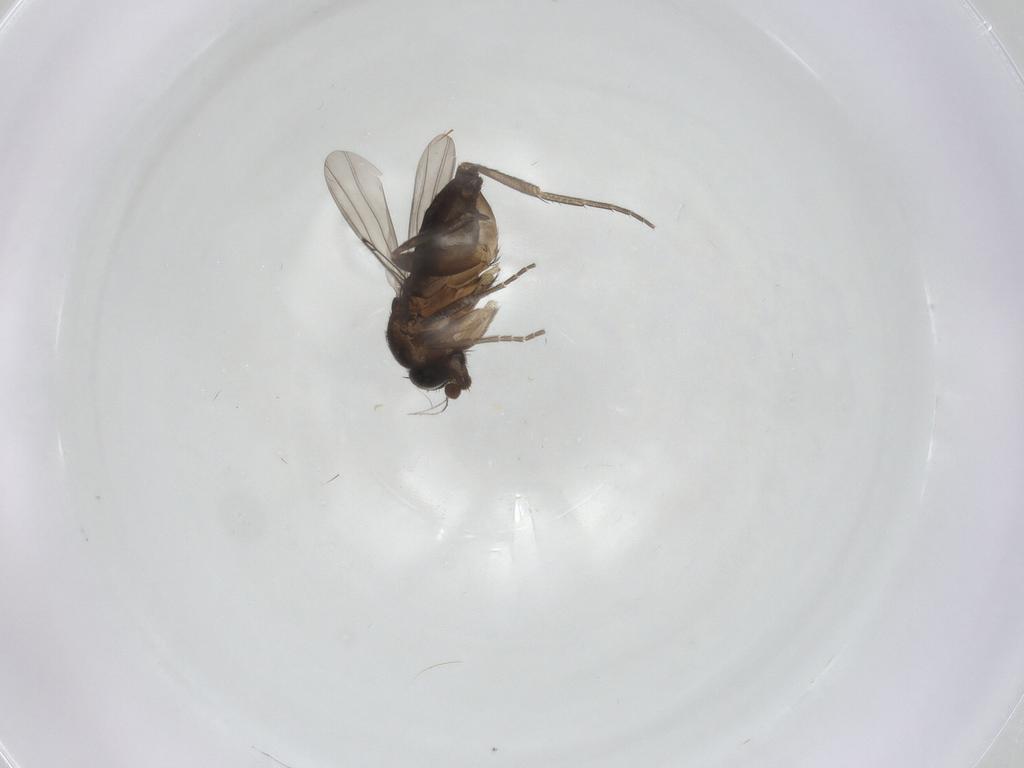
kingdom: Animalia
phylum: Arthropoda
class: Insecta
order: Diptera
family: Phoridae
